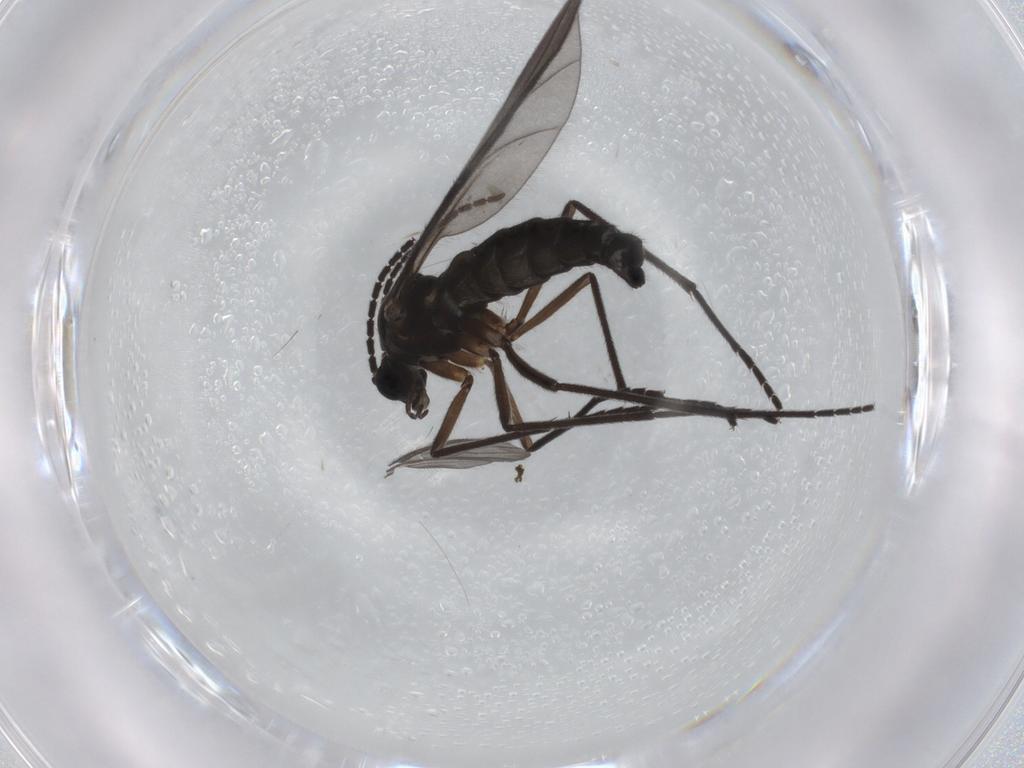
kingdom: Animalia
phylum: Arthropoda
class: Insecta
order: Diptera
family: Sciaridae
